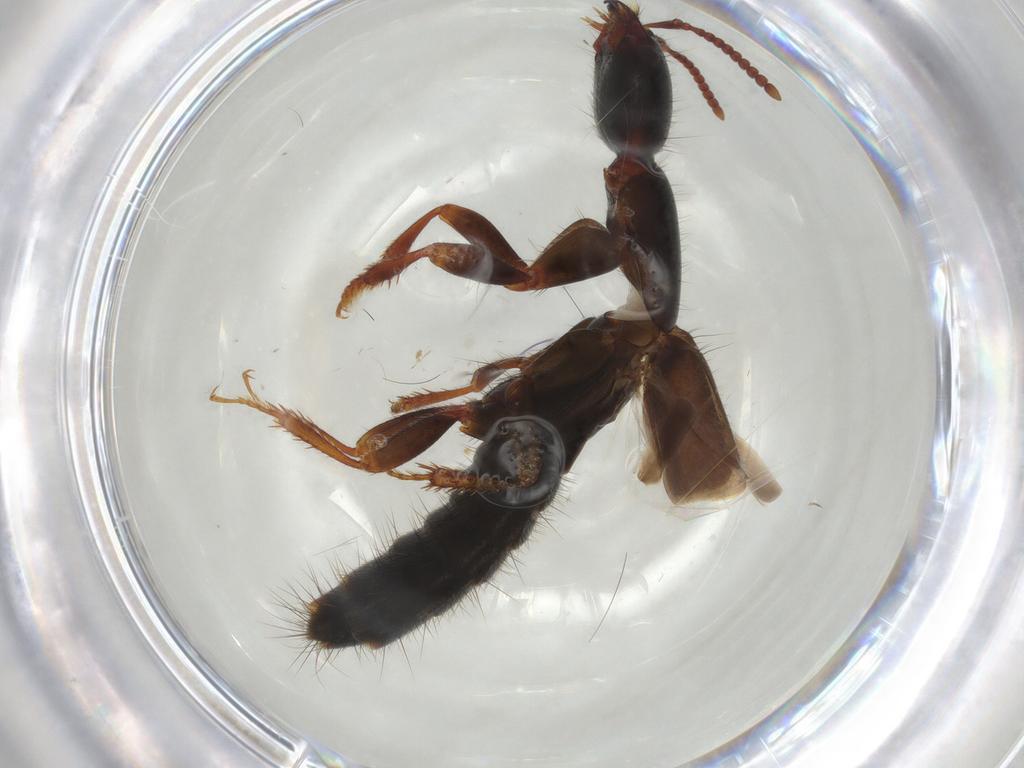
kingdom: Animalia
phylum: Arthropoda
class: Insecta
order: Coleoptera
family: Staphylinidae
